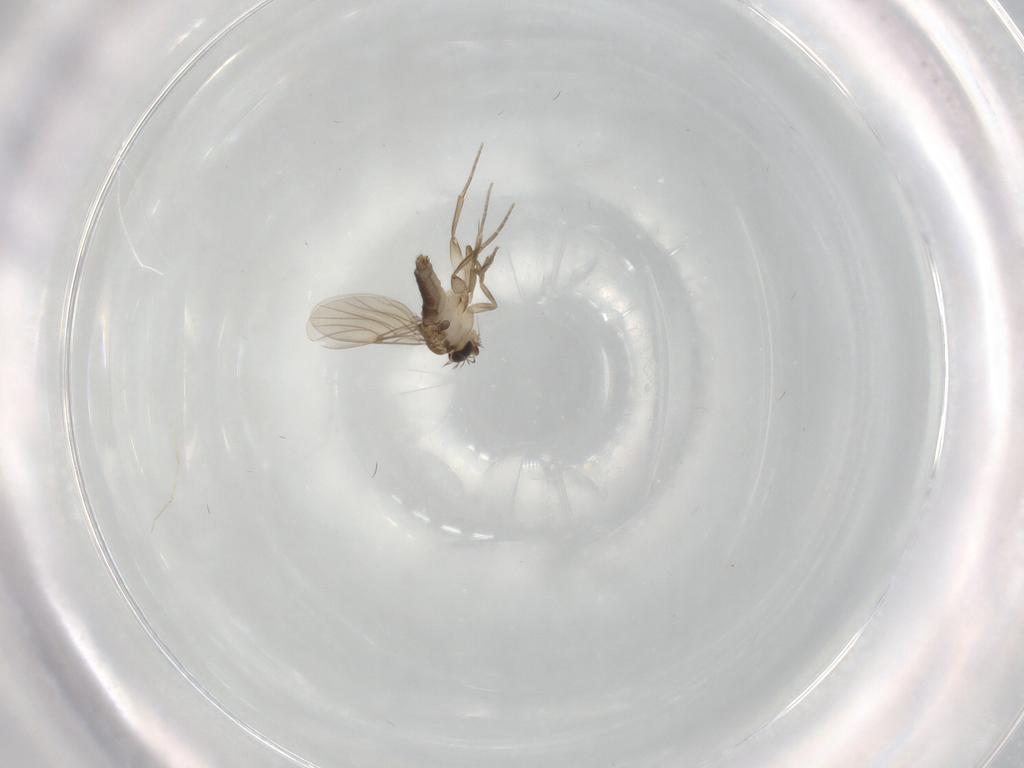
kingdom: Animalia
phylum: Arthropoda
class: Insecta
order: Diptera
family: Phoridae
